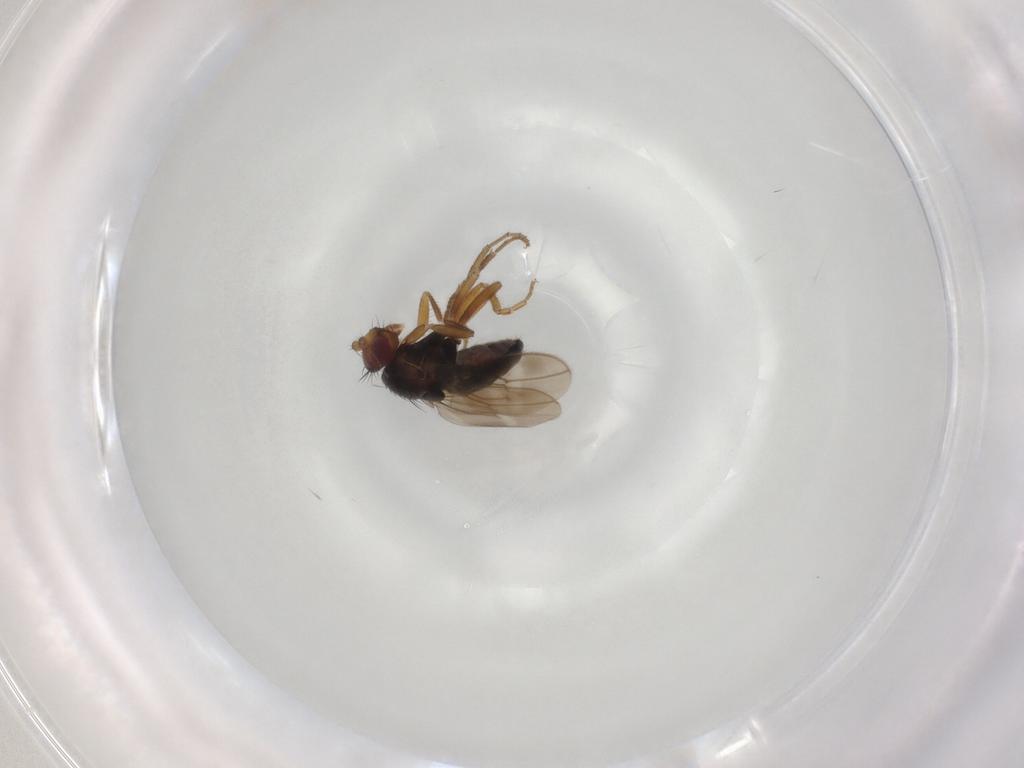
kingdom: Animalia
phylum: Arthropoda
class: Insecta
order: Diptera
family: Sphaeroceridae
